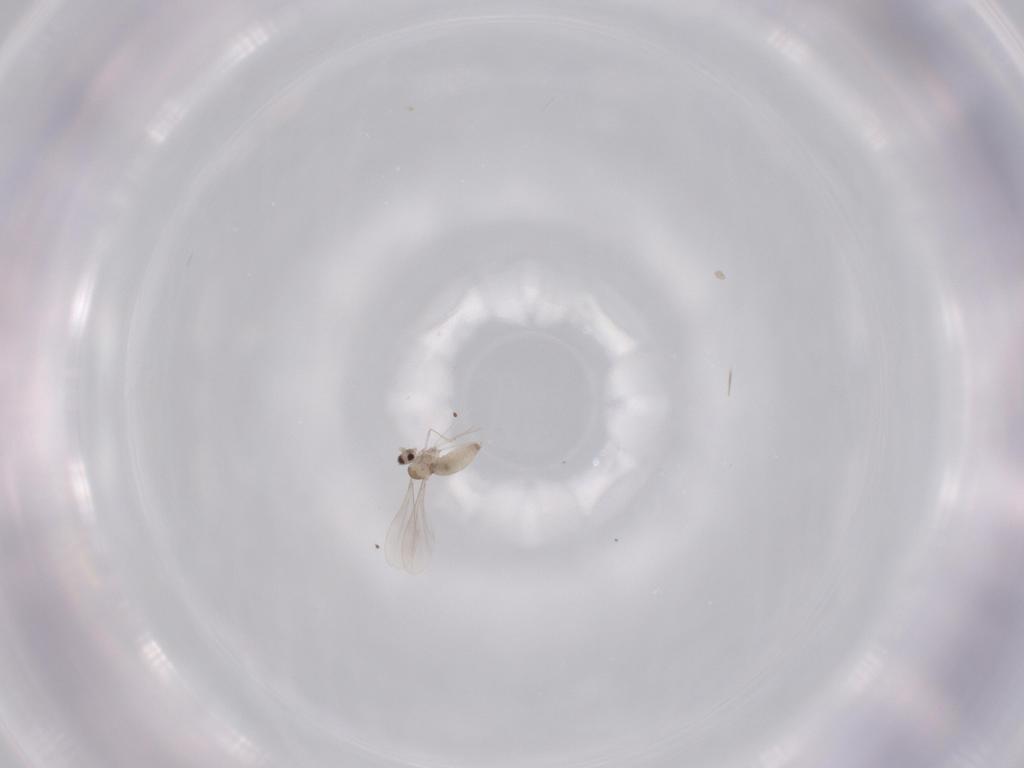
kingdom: Animalia
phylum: Arthropoda
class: Insecta
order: Diptera
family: Cecidomyiidae
